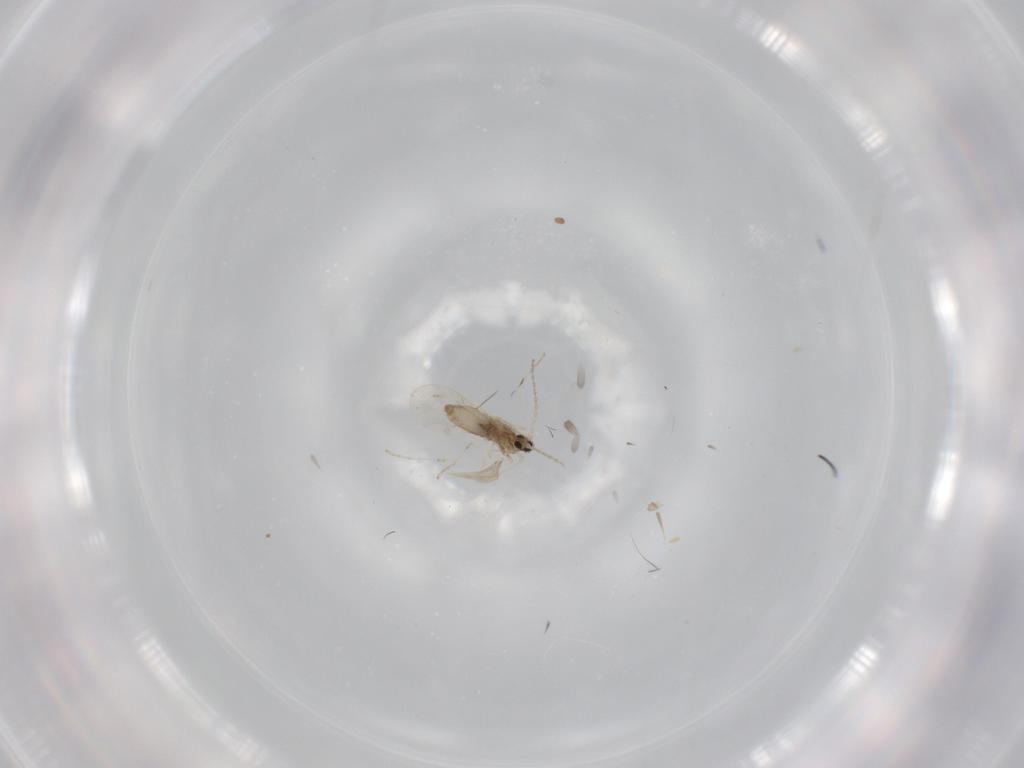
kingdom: Animalia
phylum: Arthropoda
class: Insecta
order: Diptera
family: Cecidomyiidae
